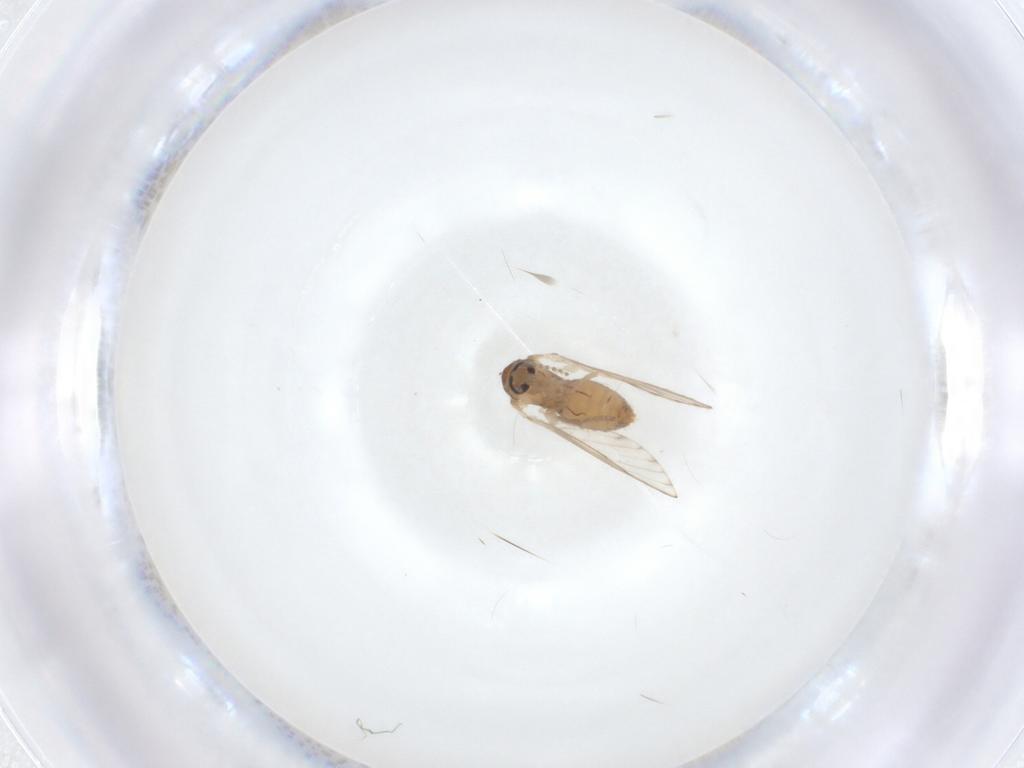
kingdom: Animalia
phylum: Arthropoda
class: Insecta
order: Diptera
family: Psychodidae
